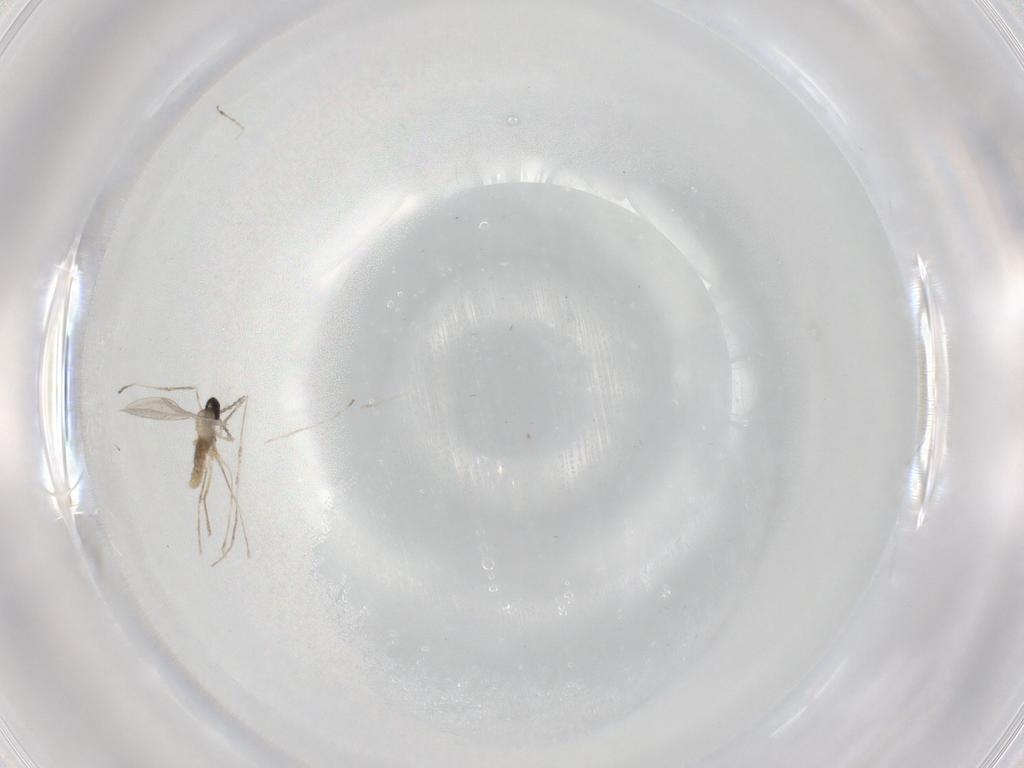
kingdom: Animalia
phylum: Arthropoda
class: Insecta
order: Diptera
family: Cecidomyiidae
